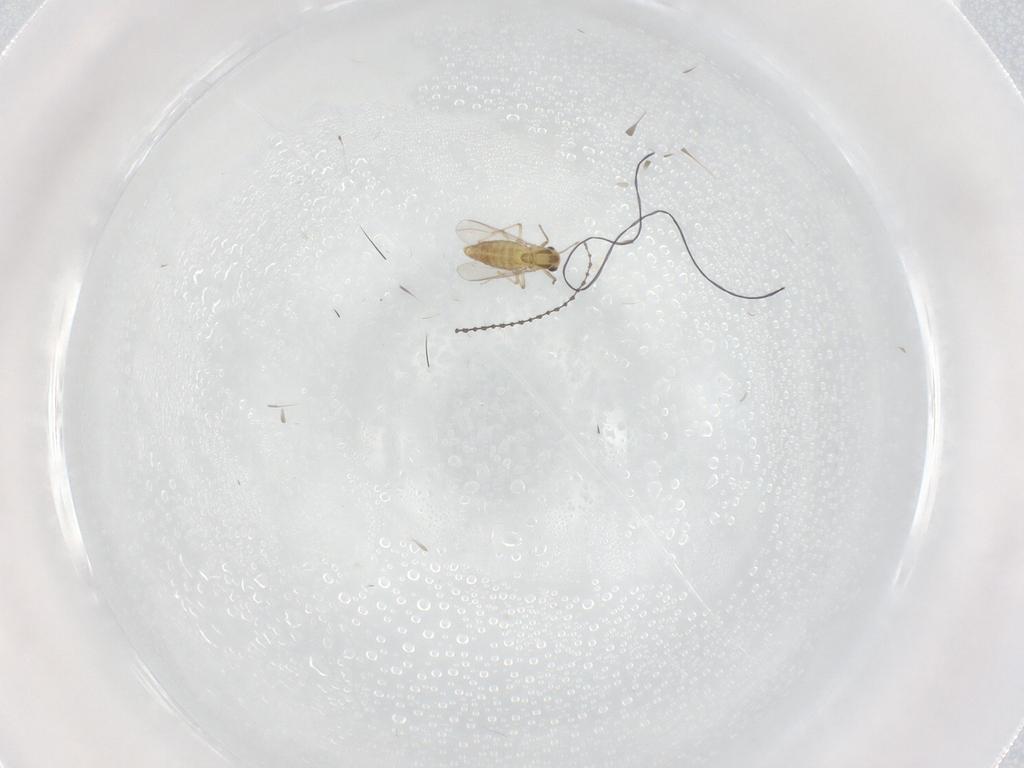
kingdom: Animalia
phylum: Arthropoda
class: Insecta
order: Diptera
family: Chironomidae
